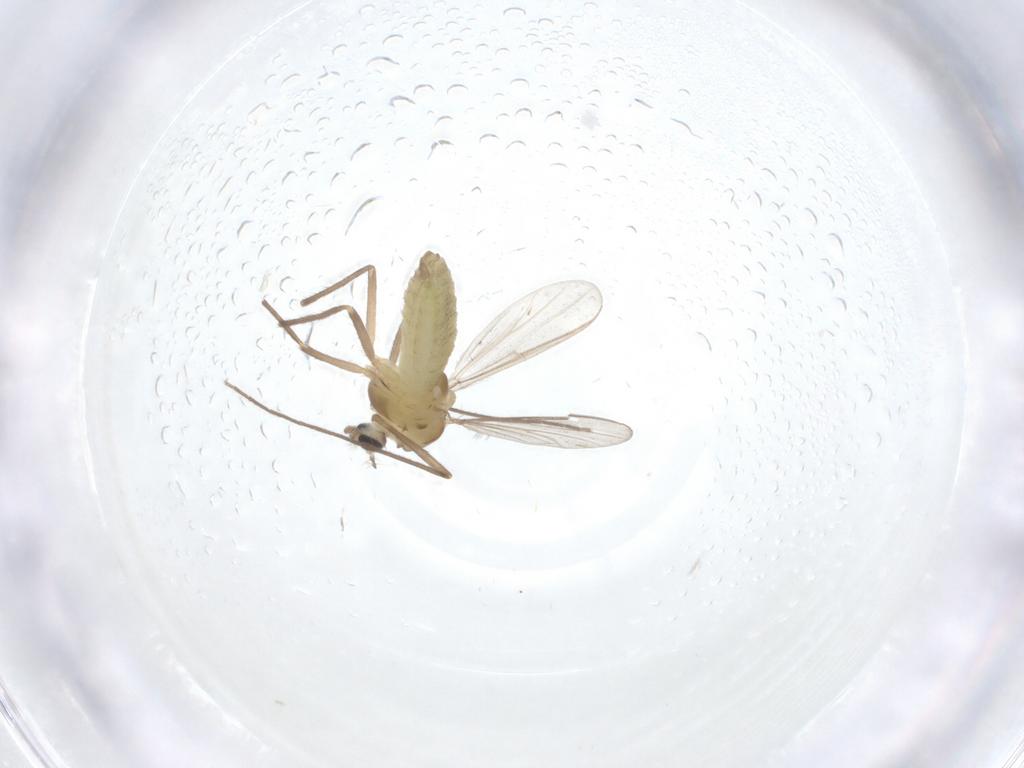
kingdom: Animalia
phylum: Arthropoda
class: Insecta
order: Diptera
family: Chironomidae
